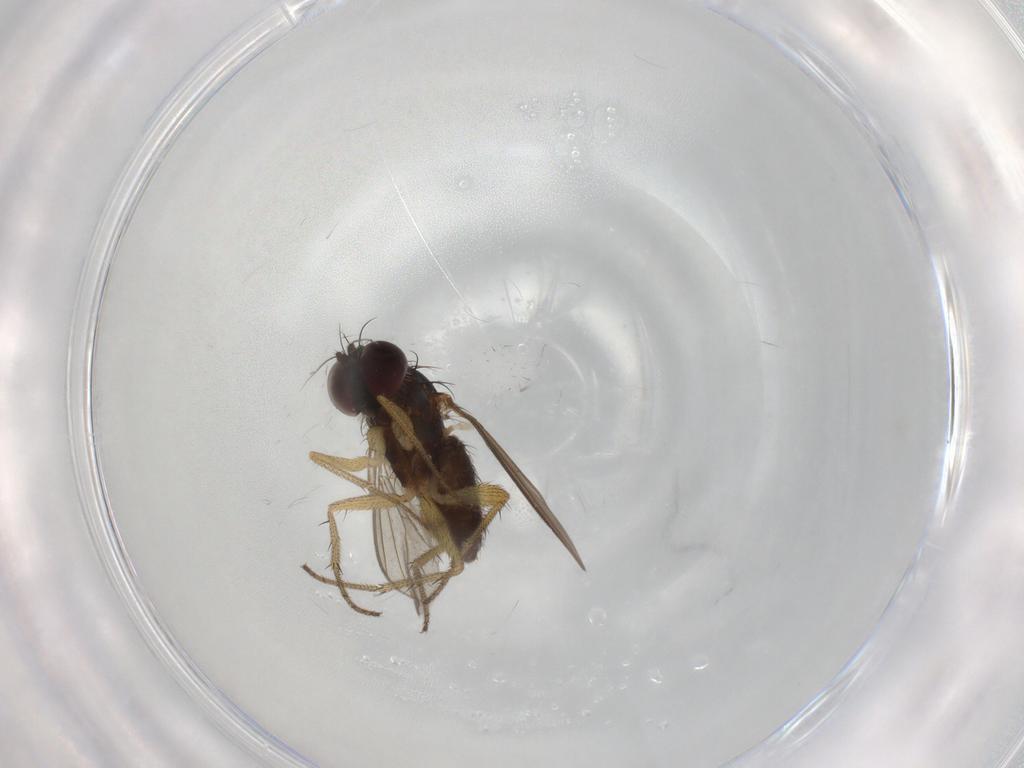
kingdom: Animalia
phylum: Arthropoda
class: Insecta
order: Diptera
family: Dolichopodidae
